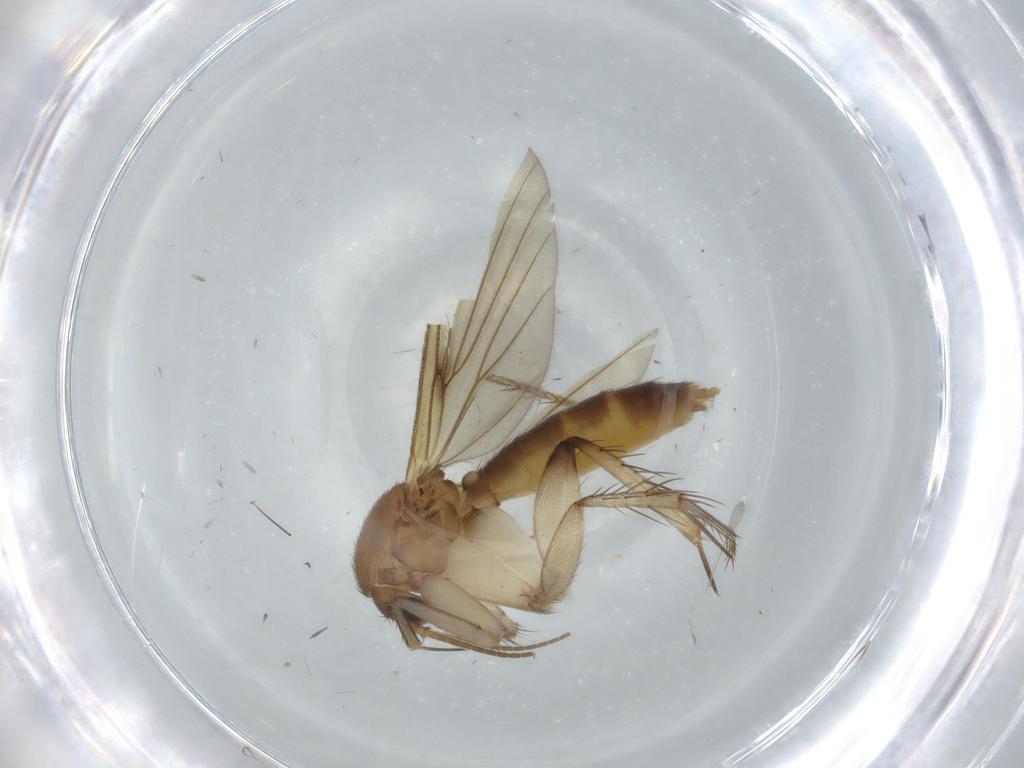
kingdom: Animalia
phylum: Arthropoda
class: Insecta
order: Diptera
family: Mycetophilidae
